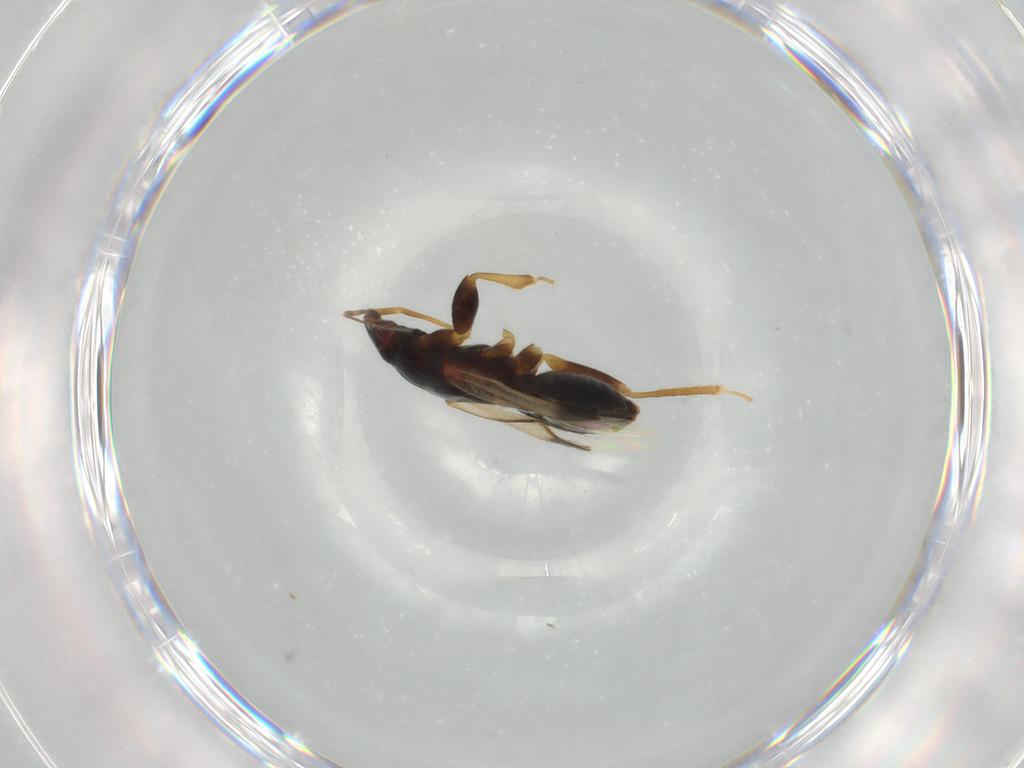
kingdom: Animalia
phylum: Arthropoda
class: Insecta
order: Hemiptera
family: Anthocoridae
